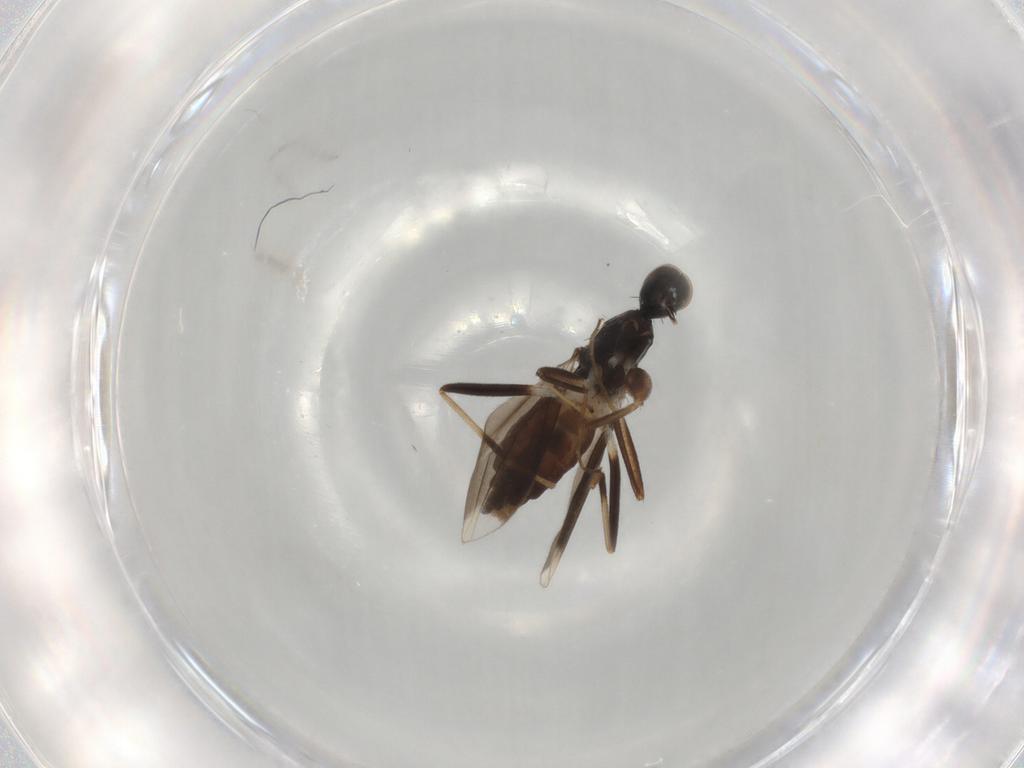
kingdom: Animalia
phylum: Arthropoda
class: Insecta
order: Diptera
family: Hybotidae
